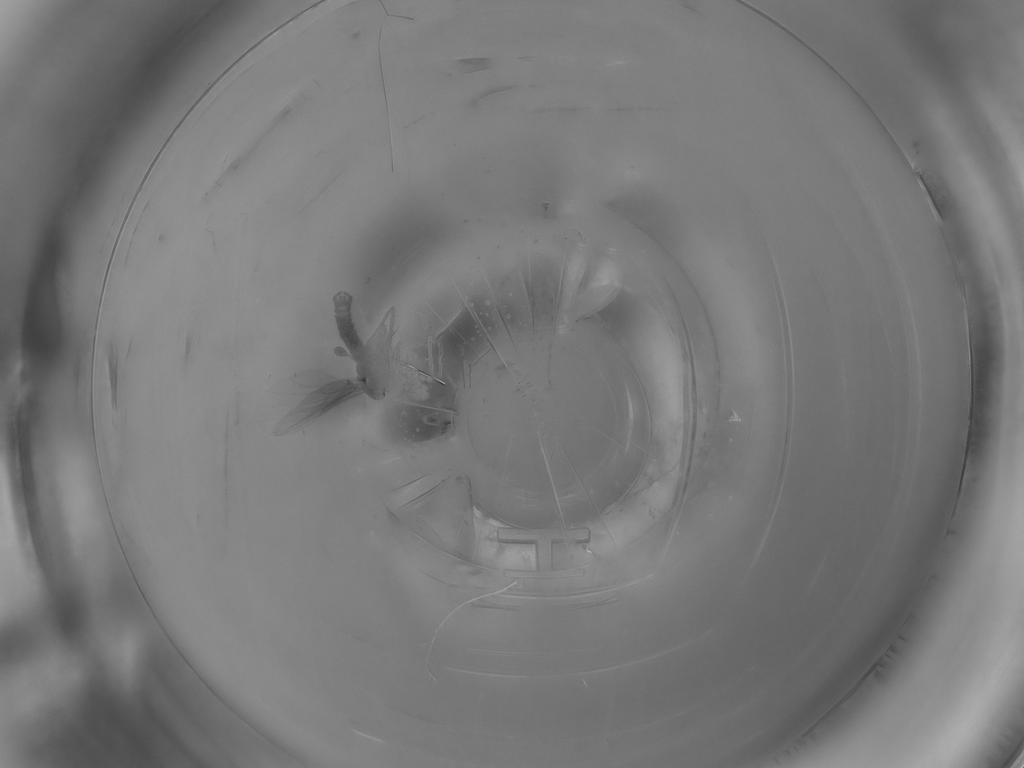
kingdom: Animalia
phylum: Arthropoda
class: Insecta
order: Diptera
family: Sciaridae
